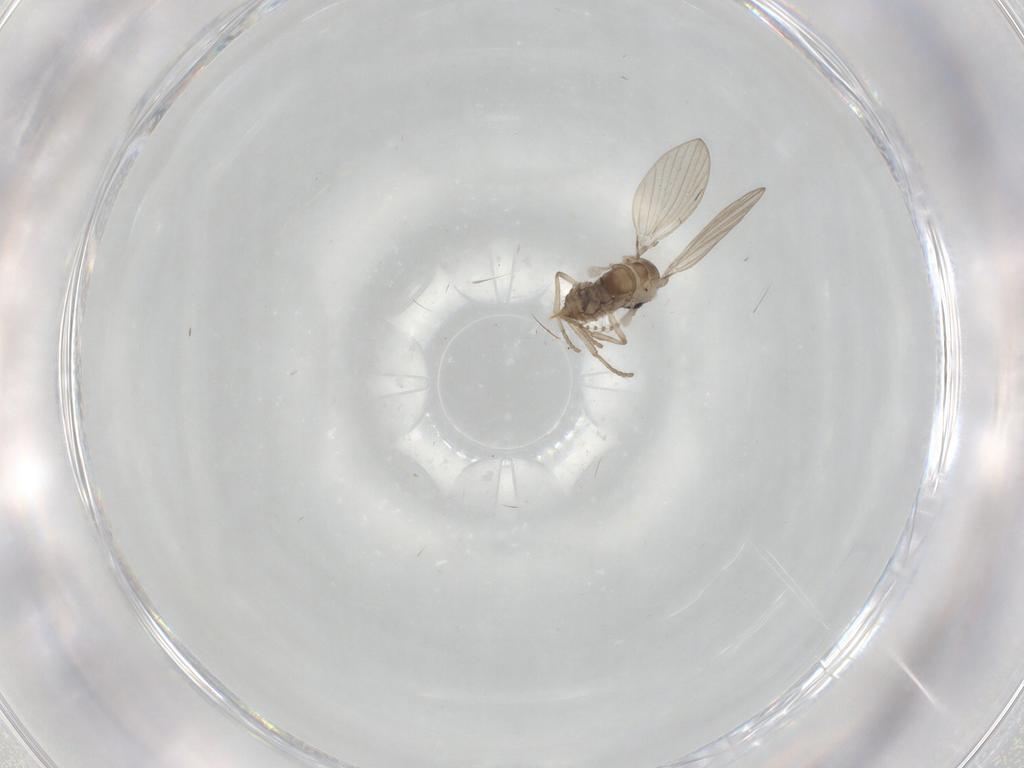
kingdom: Animalia
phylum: Arthropoda
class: Insecta
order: Diptera
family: Psychodidae
